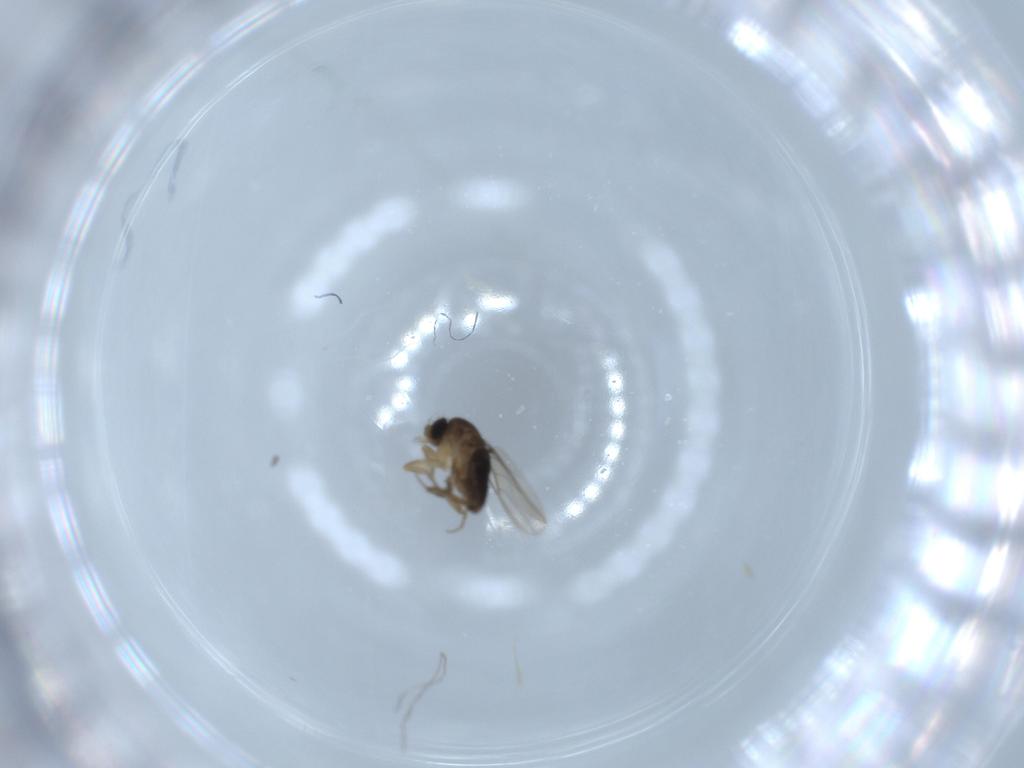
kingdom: Animalia
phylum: Arthropoda
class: Insecta
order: Diptera
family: Phoridae
